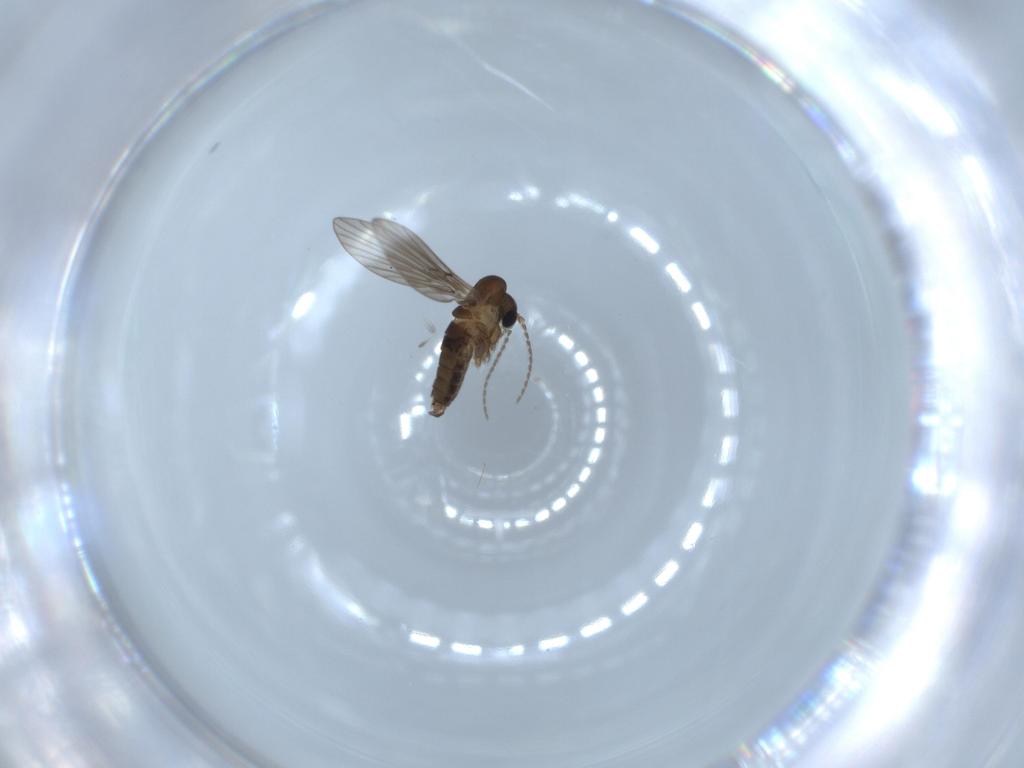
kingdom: Animalia
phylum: Arthropoda
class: Insecta
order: Diptera
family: Psychodidae
